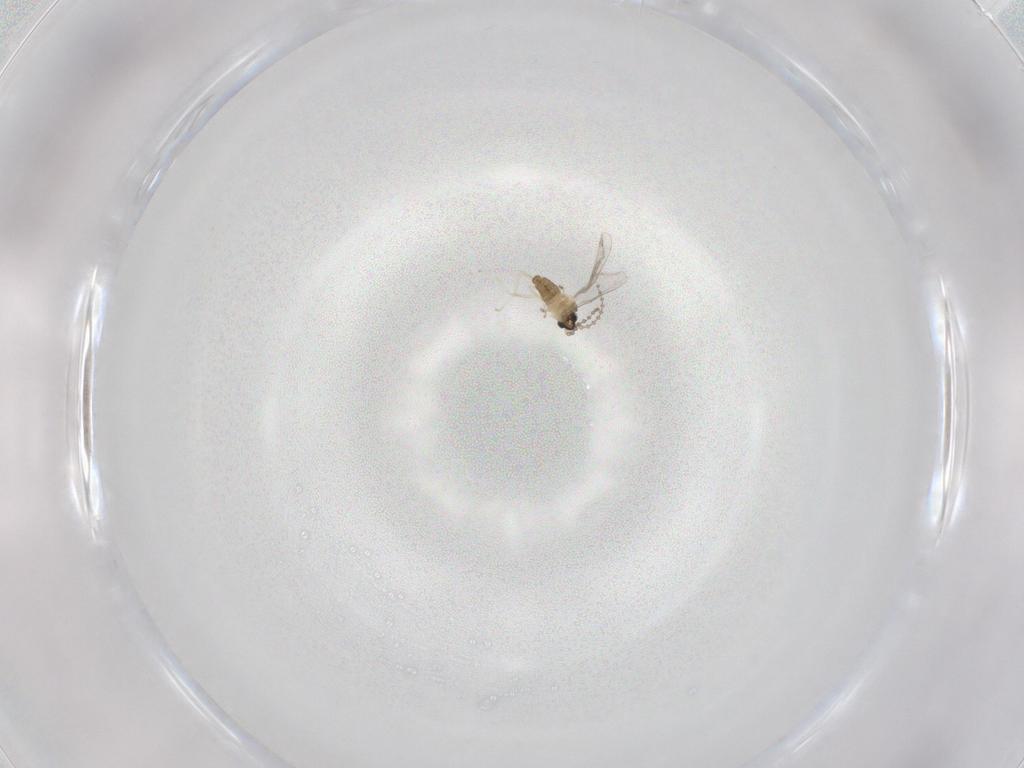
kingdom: Animalia
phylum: Arthropoda
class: Insecta
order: Diptera
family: Cecidomyiidae
